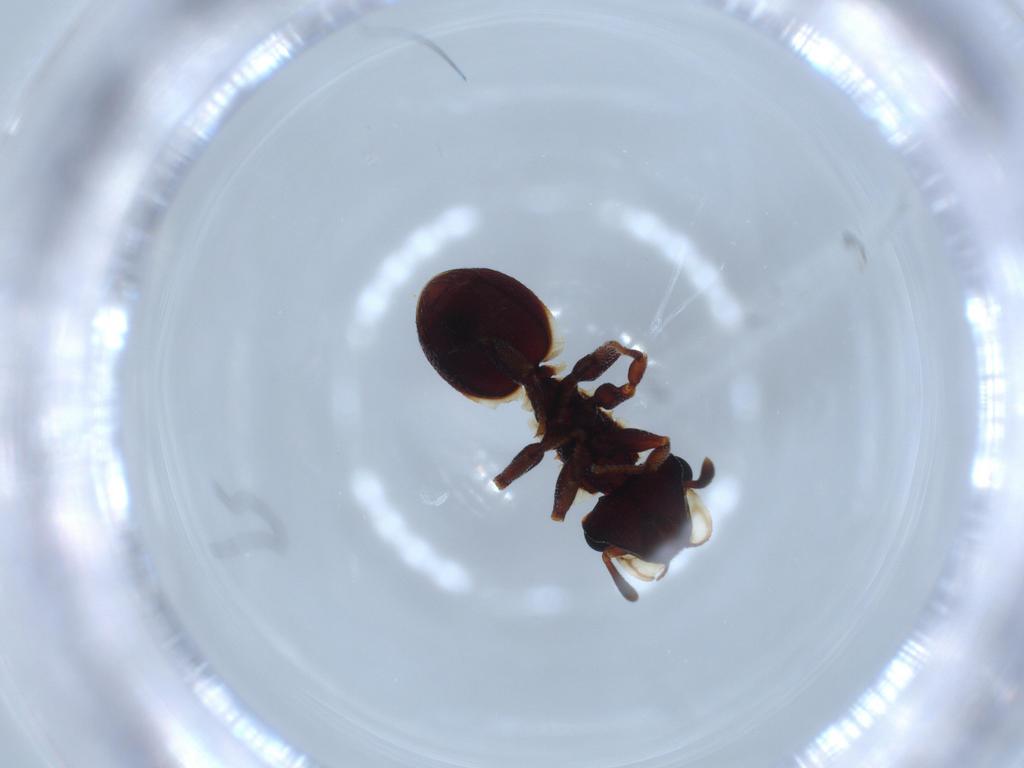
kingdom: Animalia
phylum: Arthropoda
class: Insecta
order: Hymenoptera
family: Formicidae
